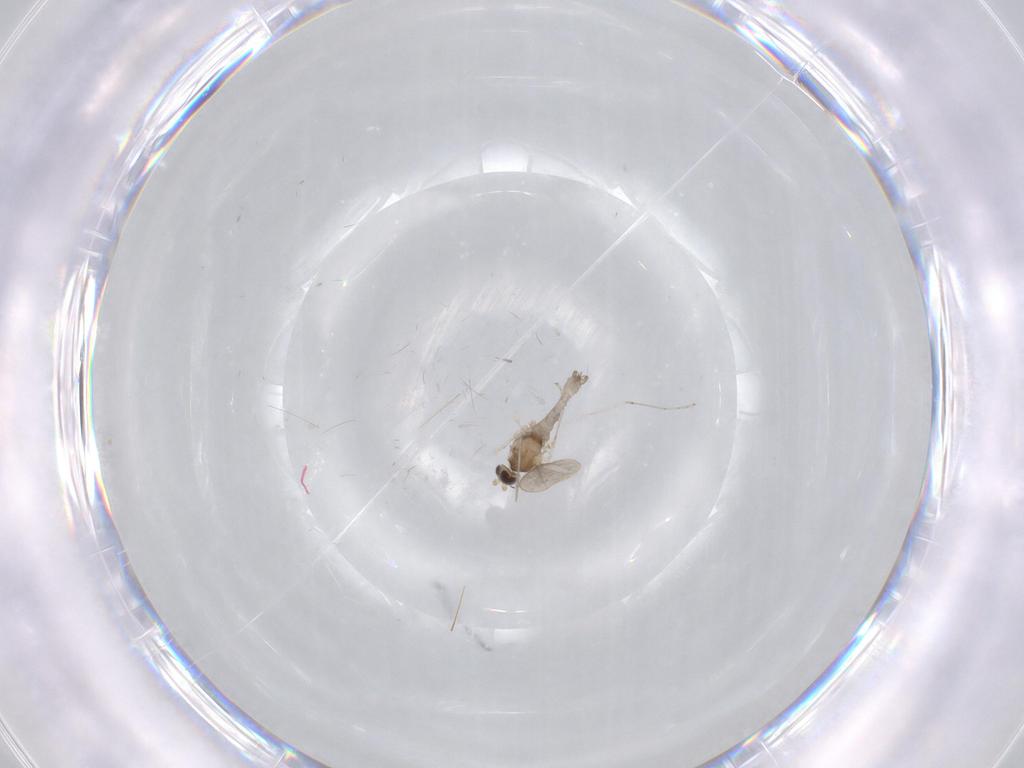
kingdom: Animalia
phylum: Arthropoda
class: Insecta
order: Diptera
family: Cecidomyiidae
